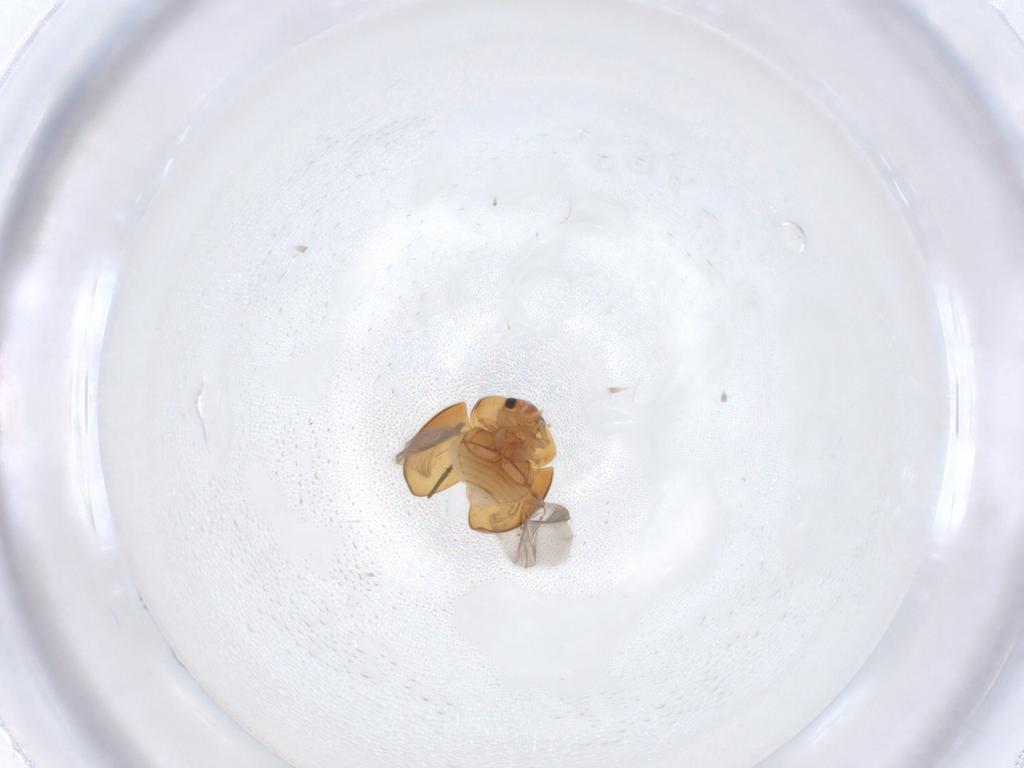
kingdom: Animalia
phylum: Arthropoda
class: Insecta
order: Coleoptera
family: Phalacridae
